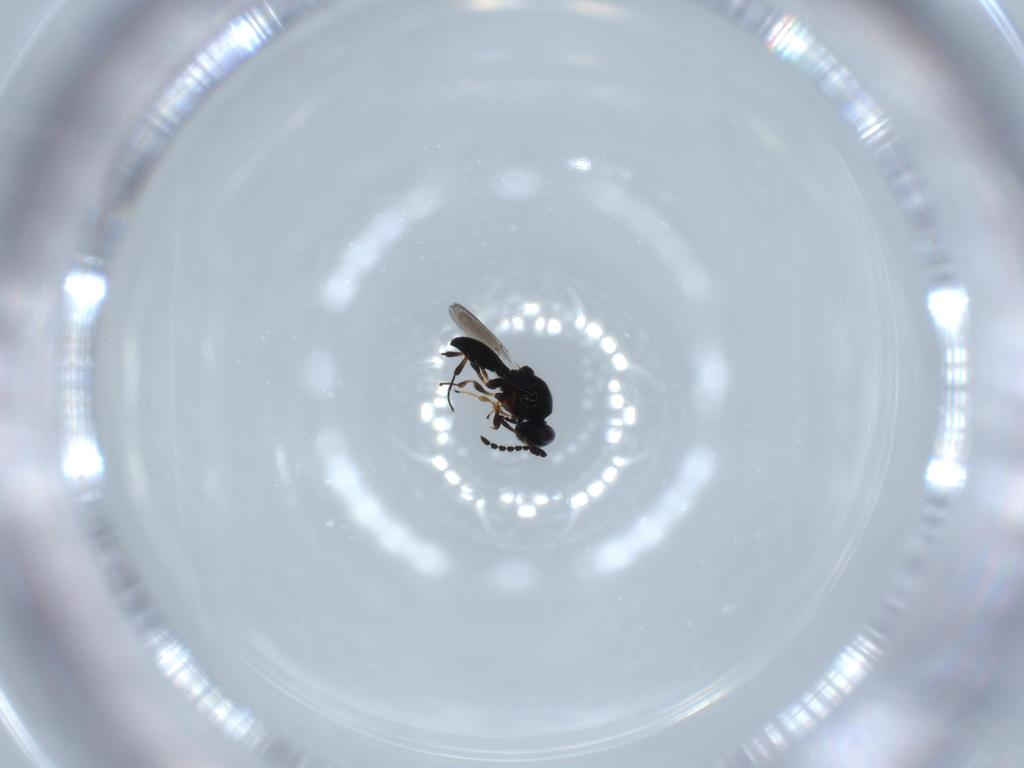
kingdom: Animalia
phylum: Arthropoda
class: Insecta
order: Hymenoptera
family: Platygastridae
